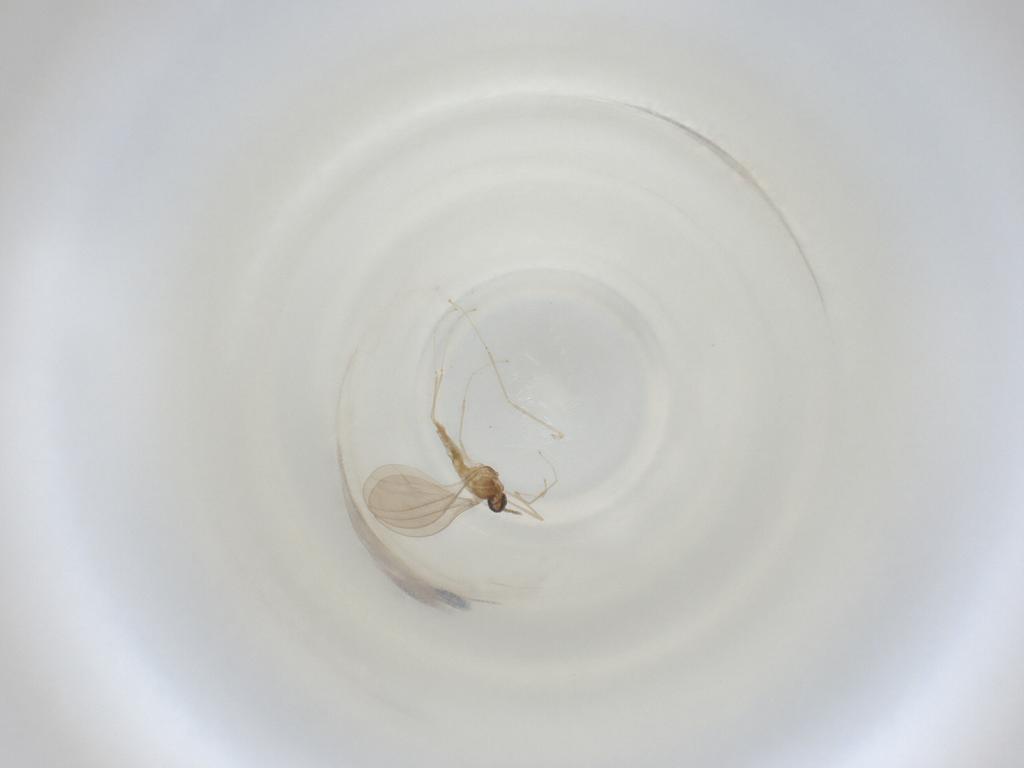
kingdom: Animalia
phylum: Arthropoda
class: Insecta
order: Diptera
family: Cecidomyiidae
